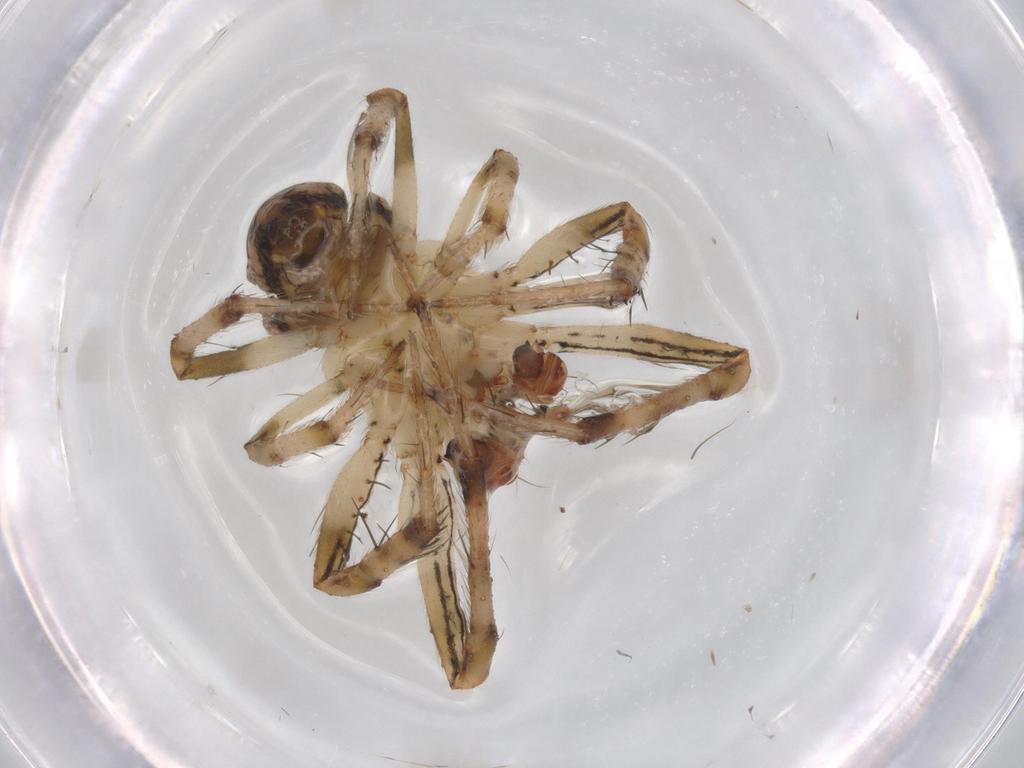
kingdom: Animalia
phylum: Arthropoda
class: Arachnida
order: Araneae
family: Araneidae
